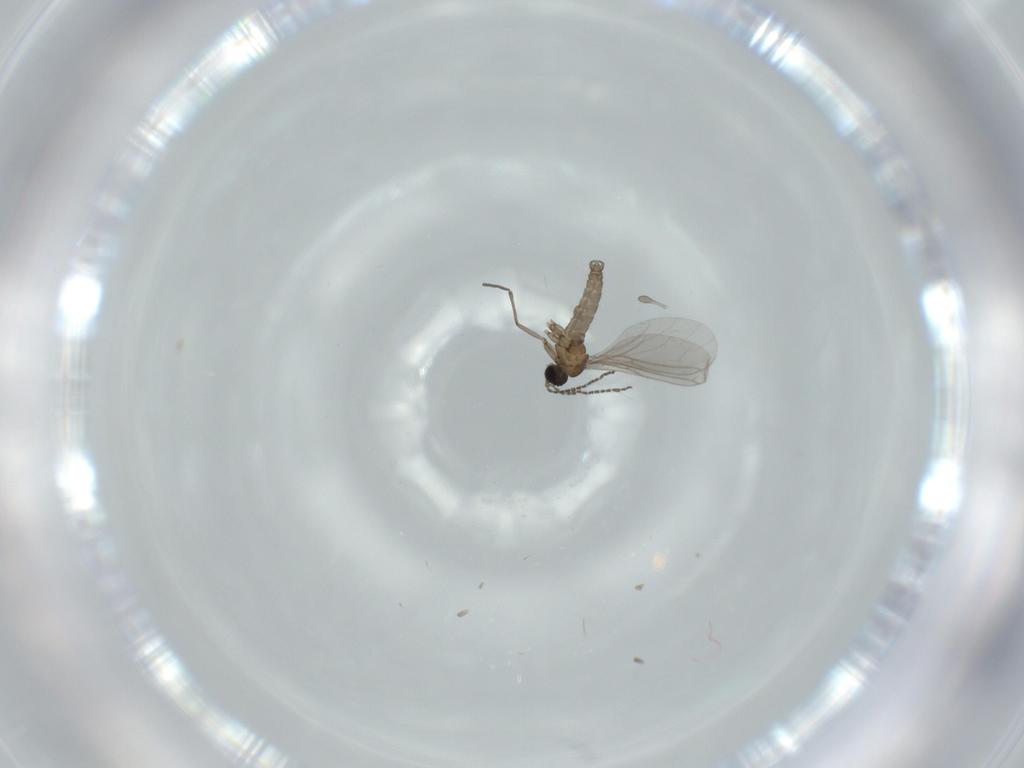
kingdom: Animalia
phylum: Arthropoda
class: Insecta
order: Diptera
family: Sciaridae
